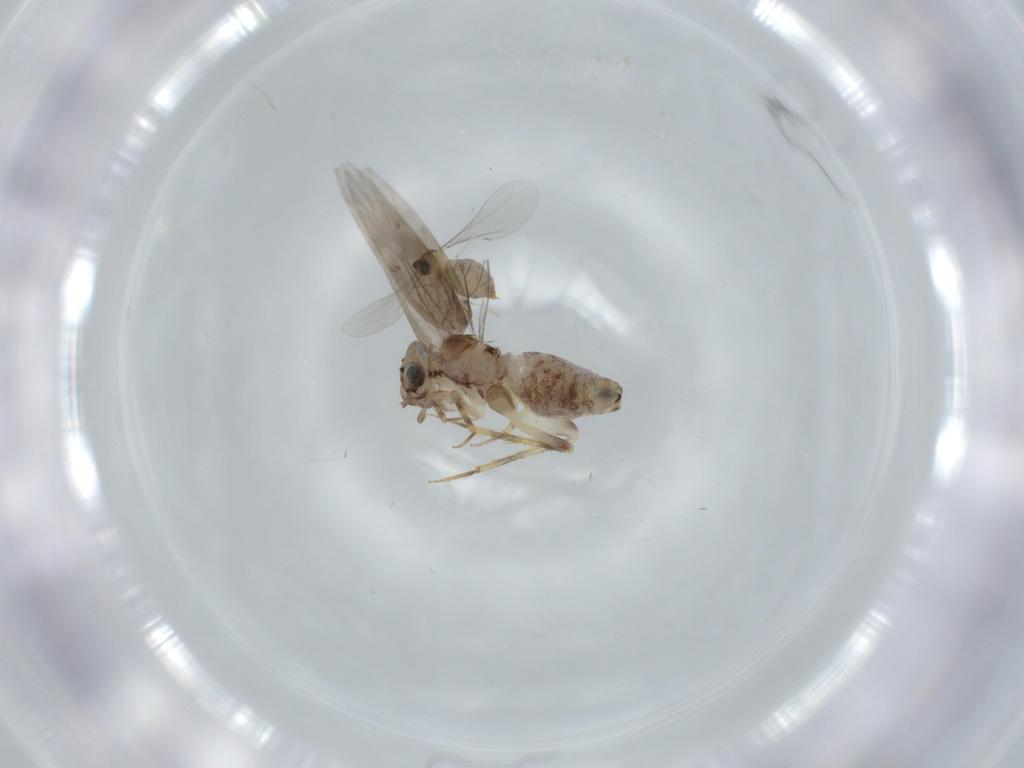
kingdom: Animalia
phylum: Arthropoda
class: Insecta
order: Psocodea
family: Lepidopsocidae
